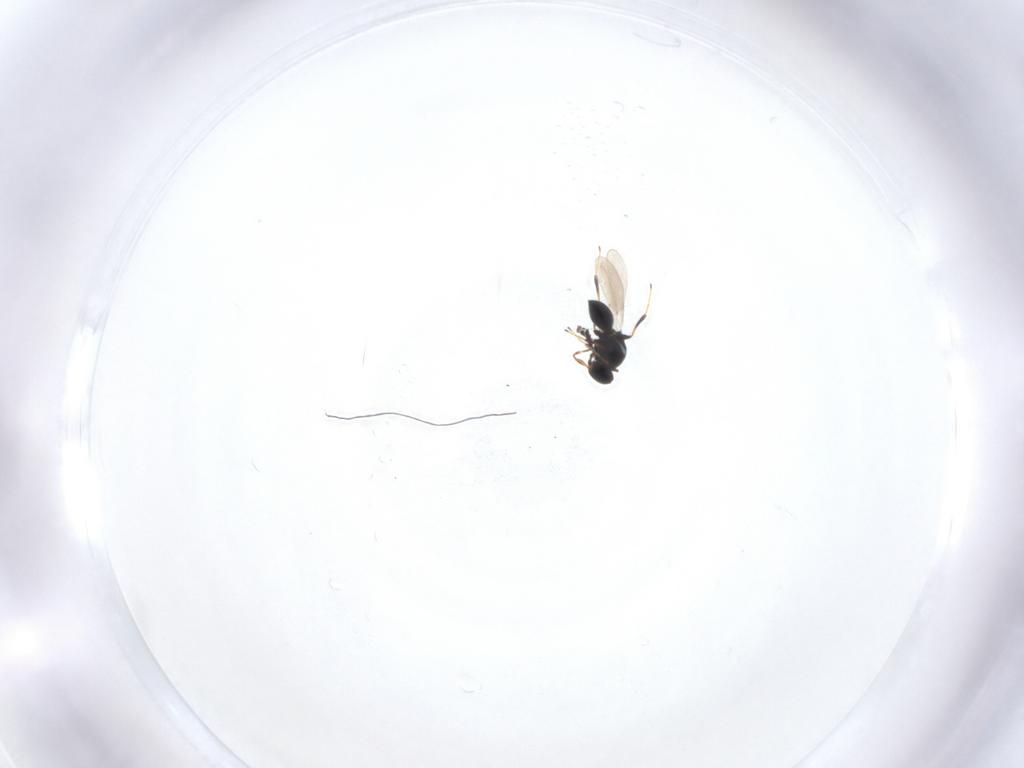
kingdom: Animalia
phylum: Arthropoda
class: Insecta
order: Hymenoptera
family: Platygastridae
